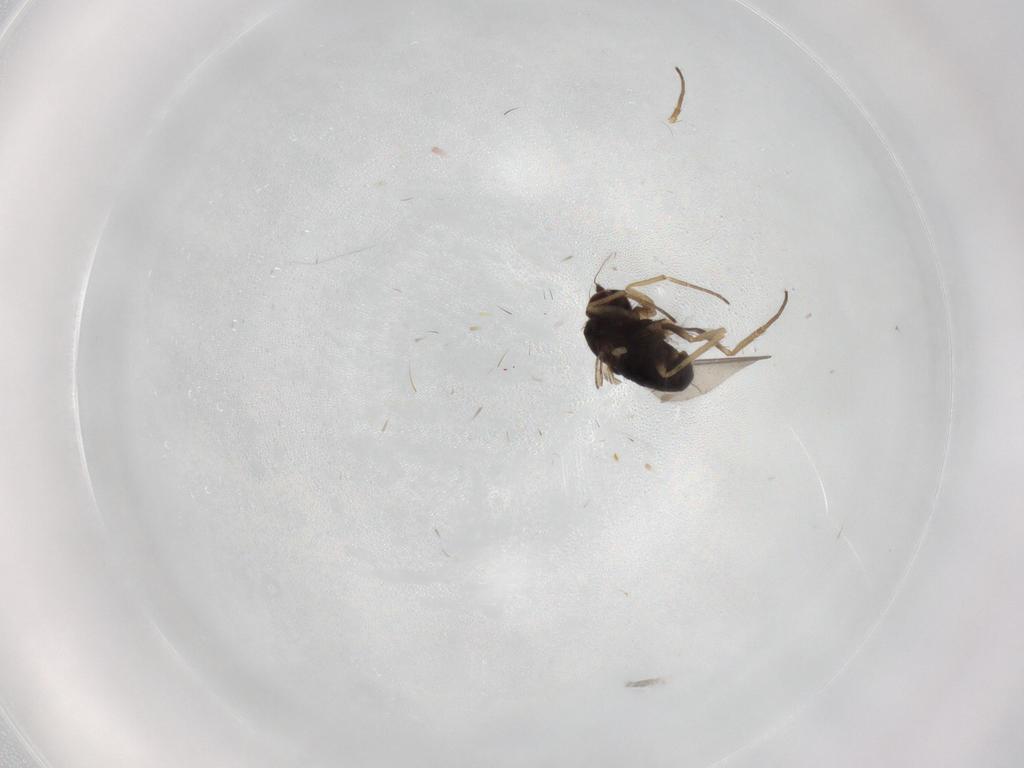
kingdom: Animalia
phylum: Arthropoda
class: Insecta
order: Diptera
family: Dolichopodidae
